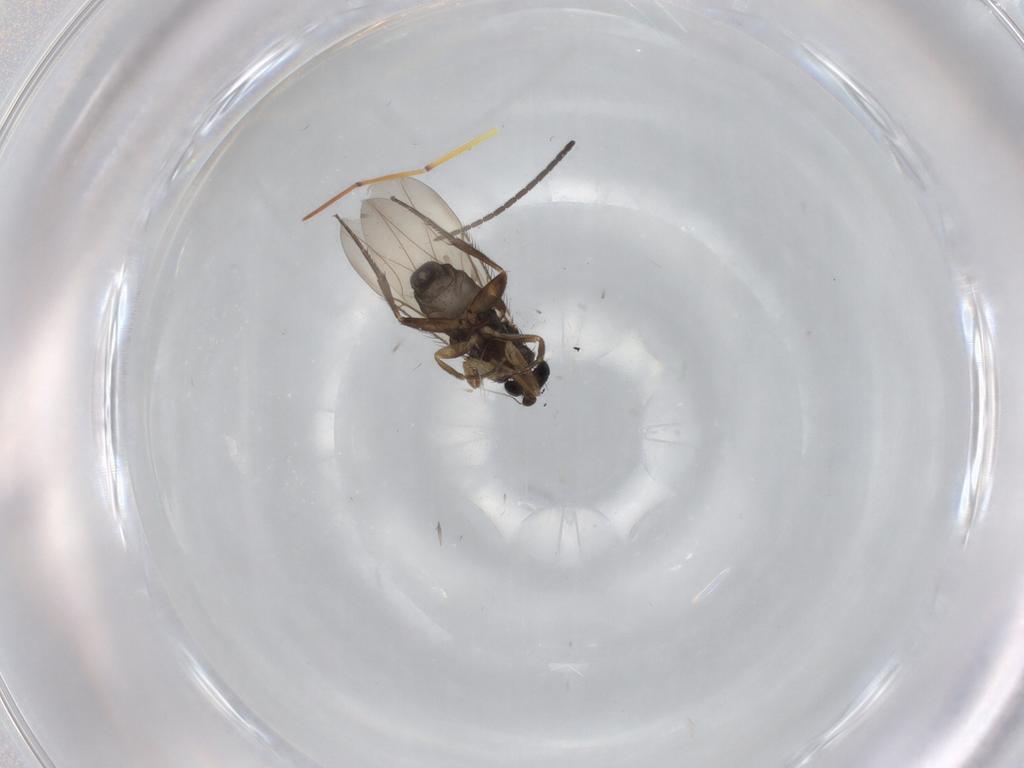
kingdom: Animalia
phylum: Arthropoda
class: Insecta
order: Diptera
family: Phoridae
